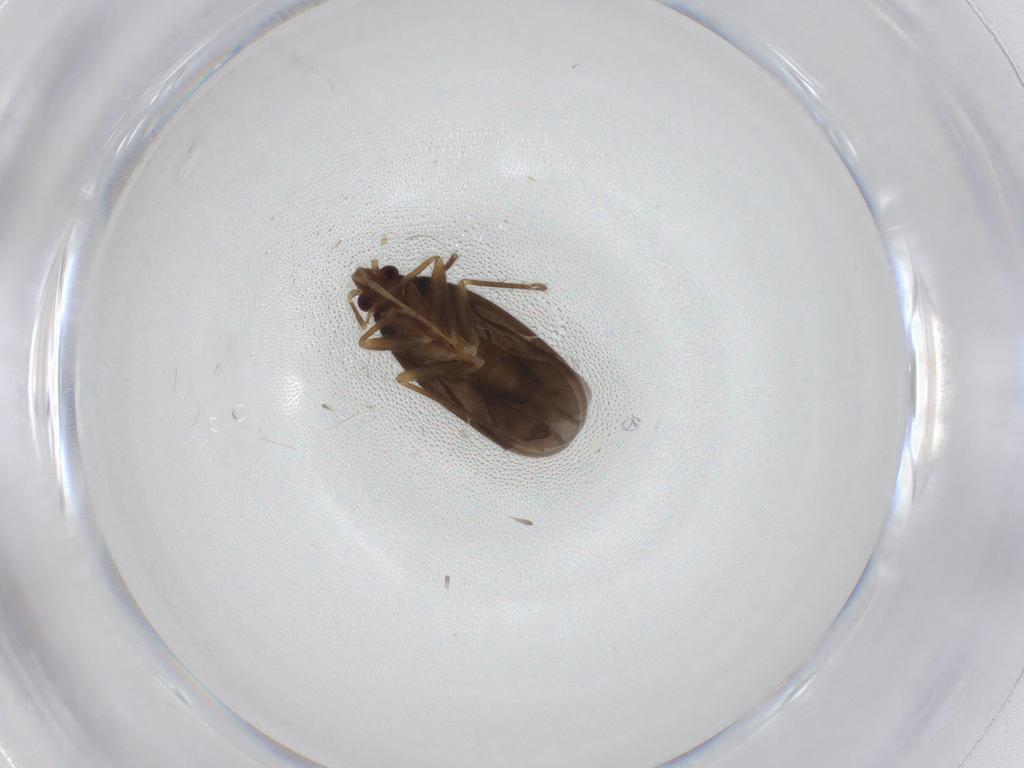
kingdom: Animalia
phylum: Arthropoda
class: Insecta
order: Hemiptera
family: Ceratocombidae
